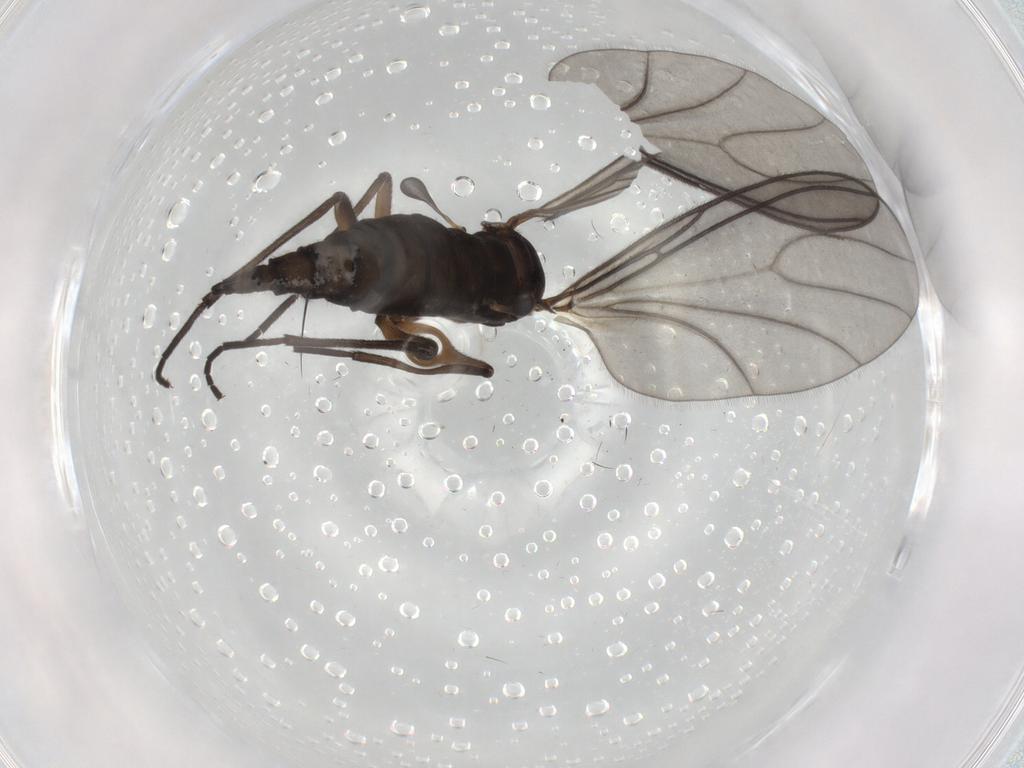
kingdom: Animalia
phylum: Arthropoda
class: Insecta
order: Diptera
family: Sciaridae
